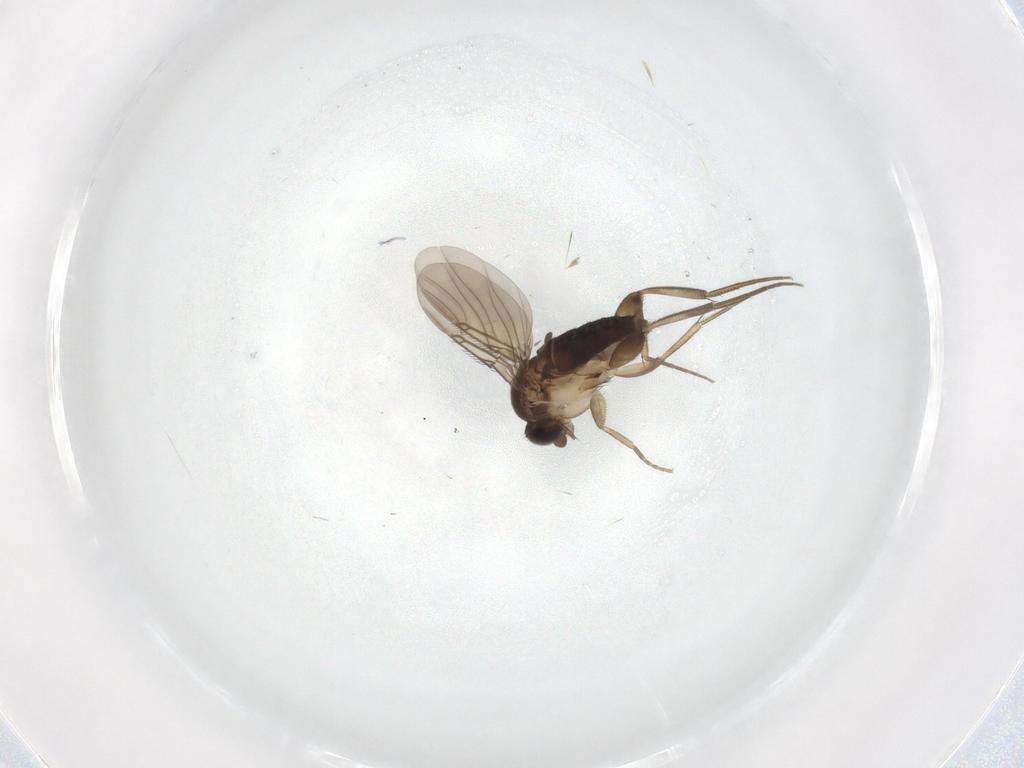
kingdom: Animalia
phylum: Arthropoda
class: Insecta
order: Diptera
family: Phoridae
